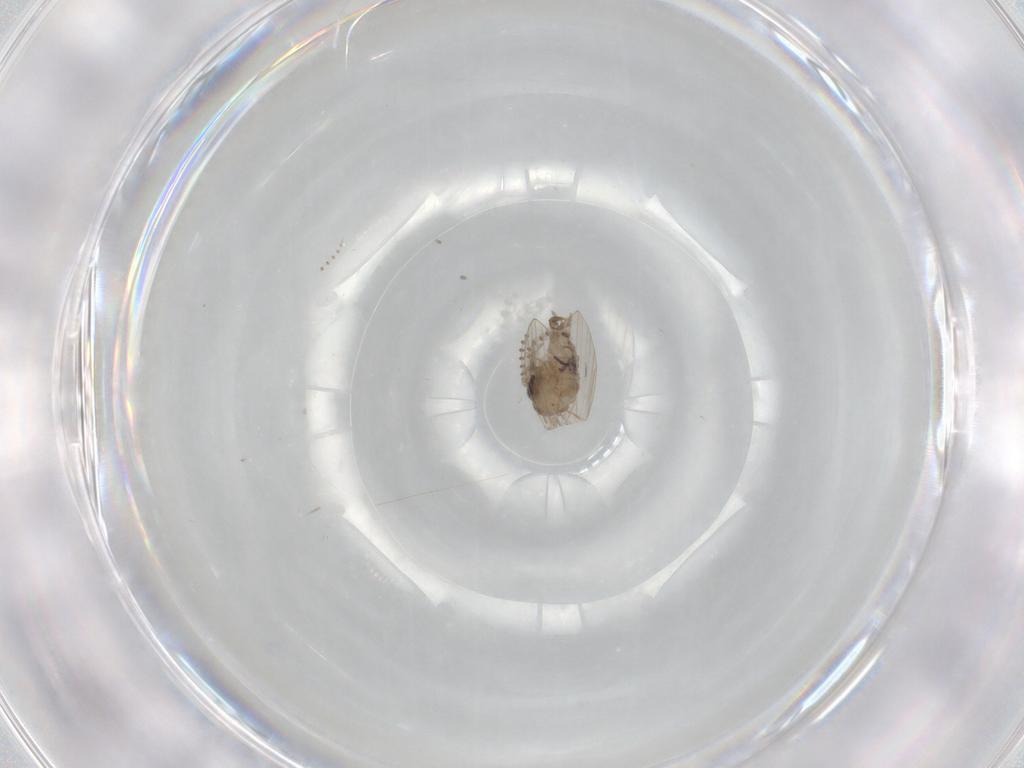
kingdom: Animalia
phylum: Arthropoda
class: Insecta
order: Diptera
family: Psychodidae
